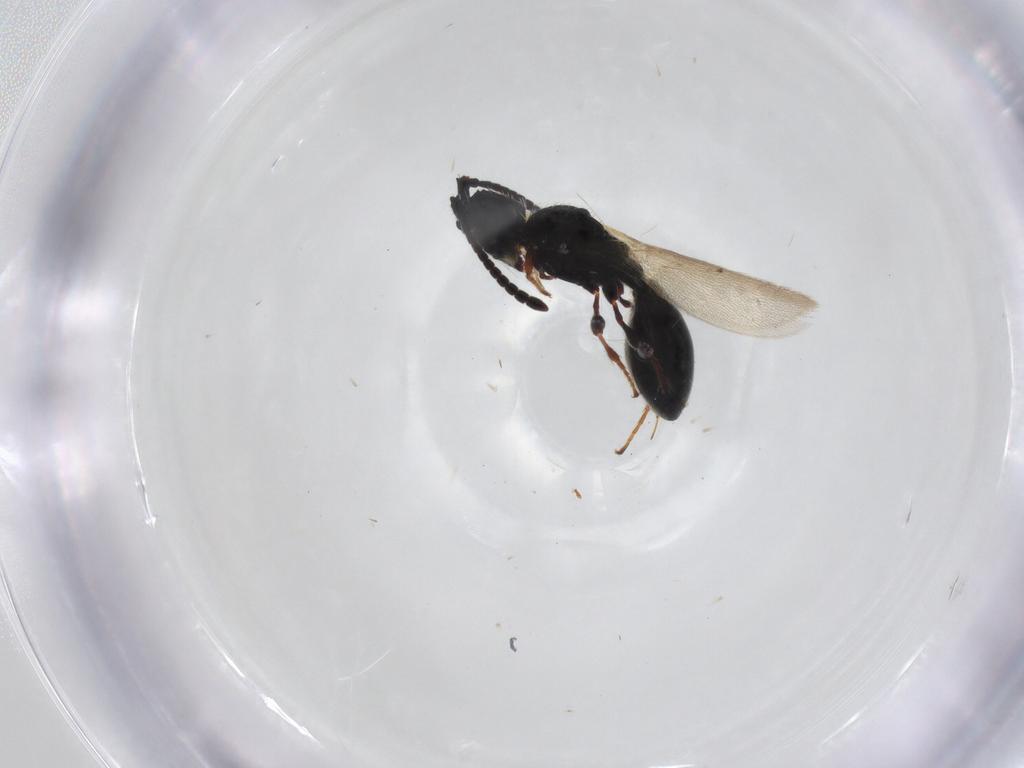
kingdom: Animalia
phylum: Arthropoda
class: Insecta
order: Hymenoptera
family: Diapriidae
